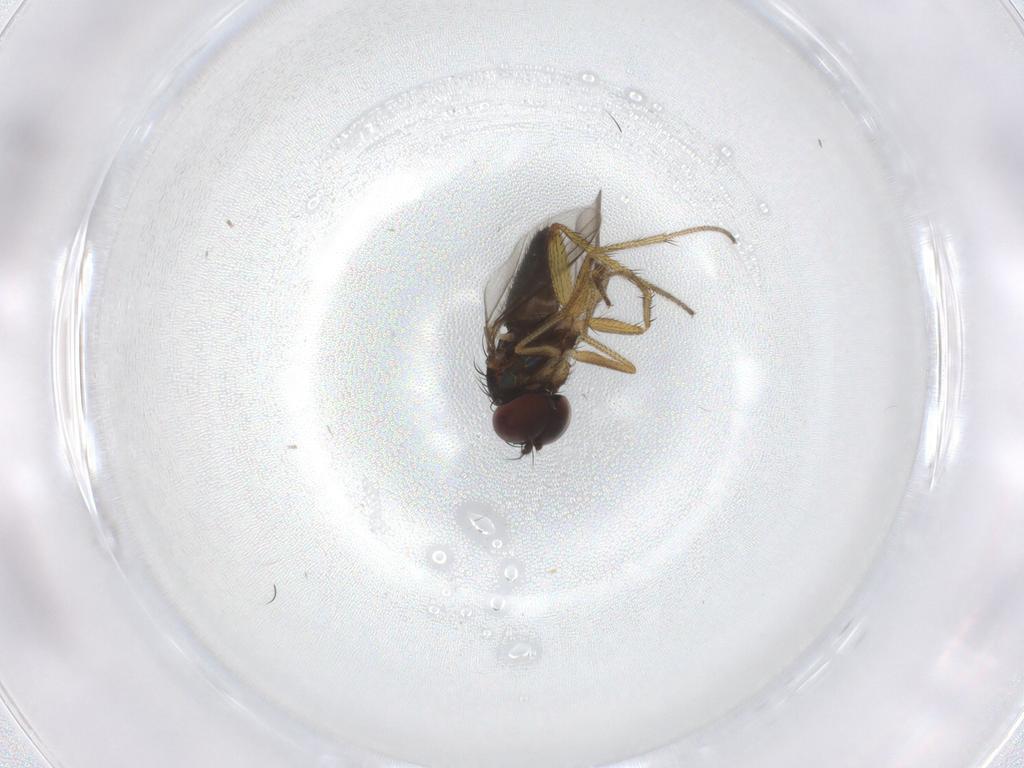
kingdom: Animalia
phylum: Arthropoda
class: Insecta
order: Diptera
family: Dolichopodidae
